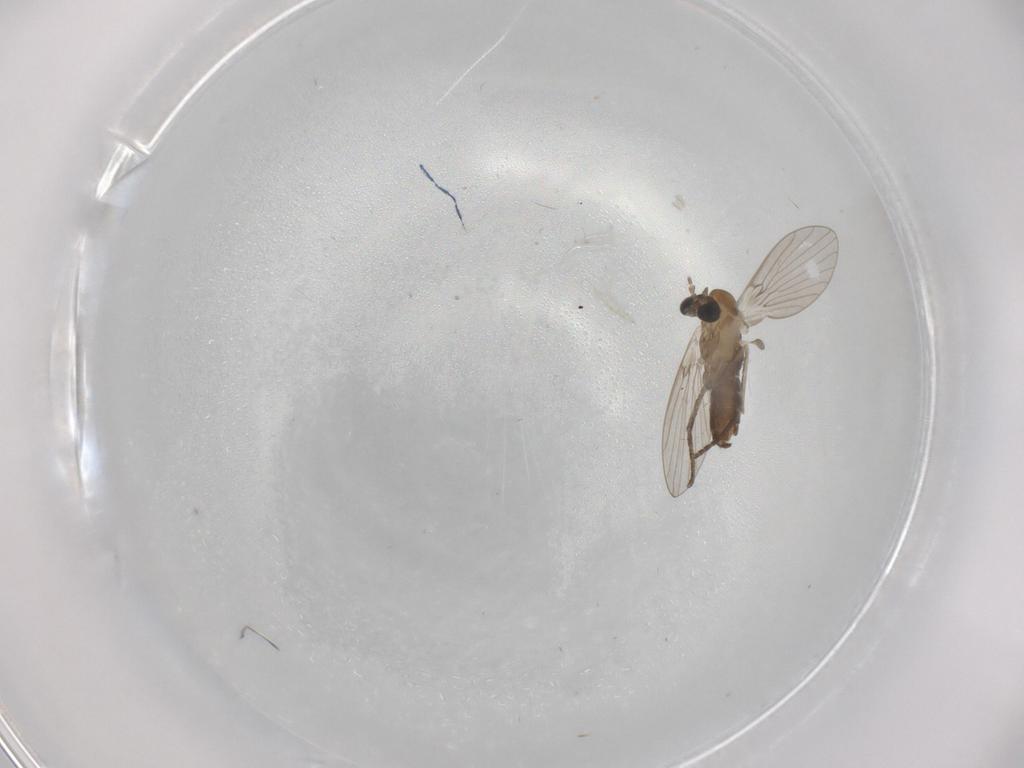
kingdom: Animalia
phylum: Arthropoda
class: Insecta
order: Diptera
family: Psychodidae
